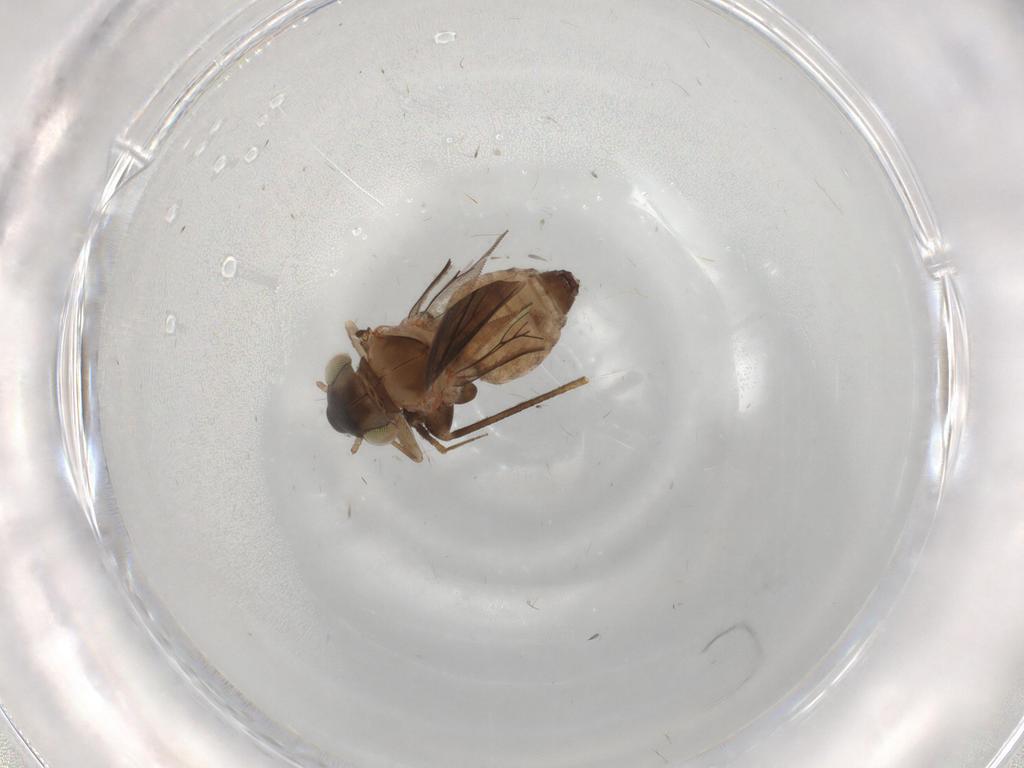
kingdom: Animalia
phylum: Arthropoda
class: Insecta
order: Psocodea
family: Lepidopsocidae
